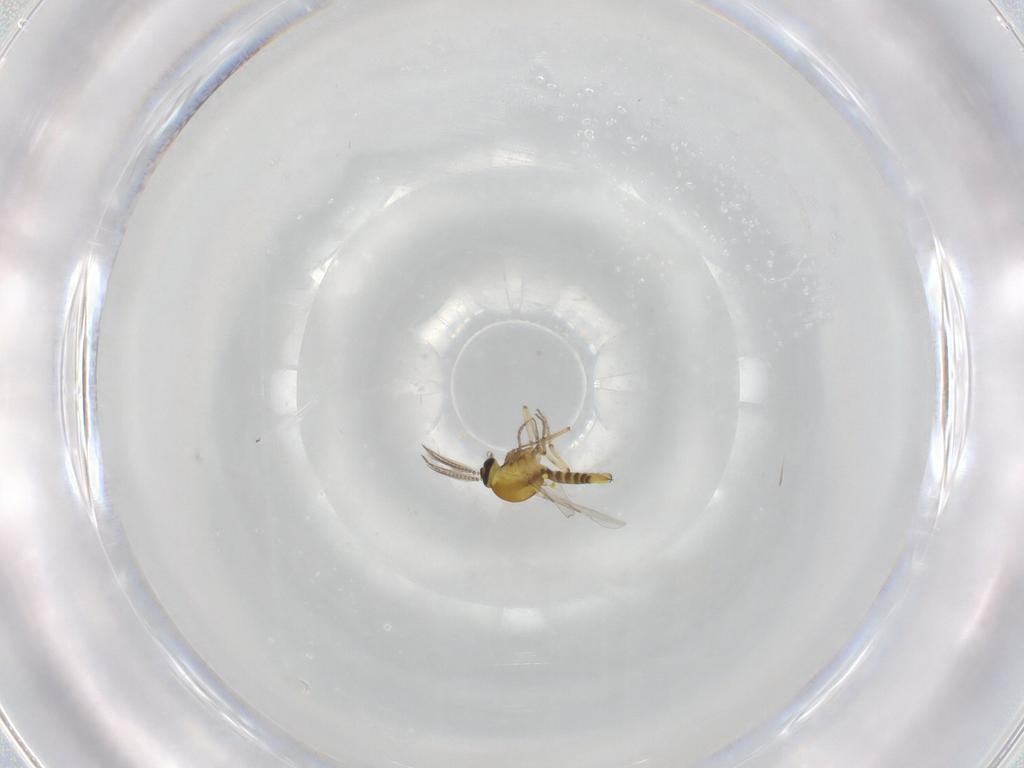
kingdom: Animalia
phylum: Arthropoda
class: Insecta
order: Diptera
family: Ceratopogonidae
